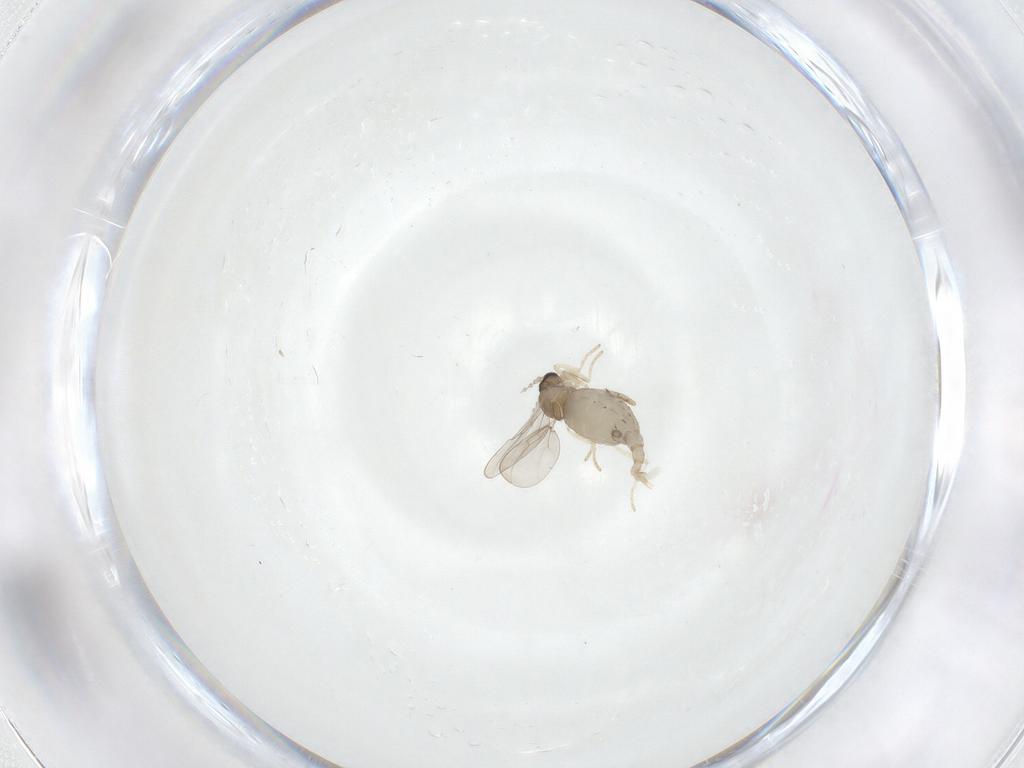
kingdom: Animalia
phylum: Arthropoda
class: Insecta
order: Diptera
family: Cecidomyiidae
